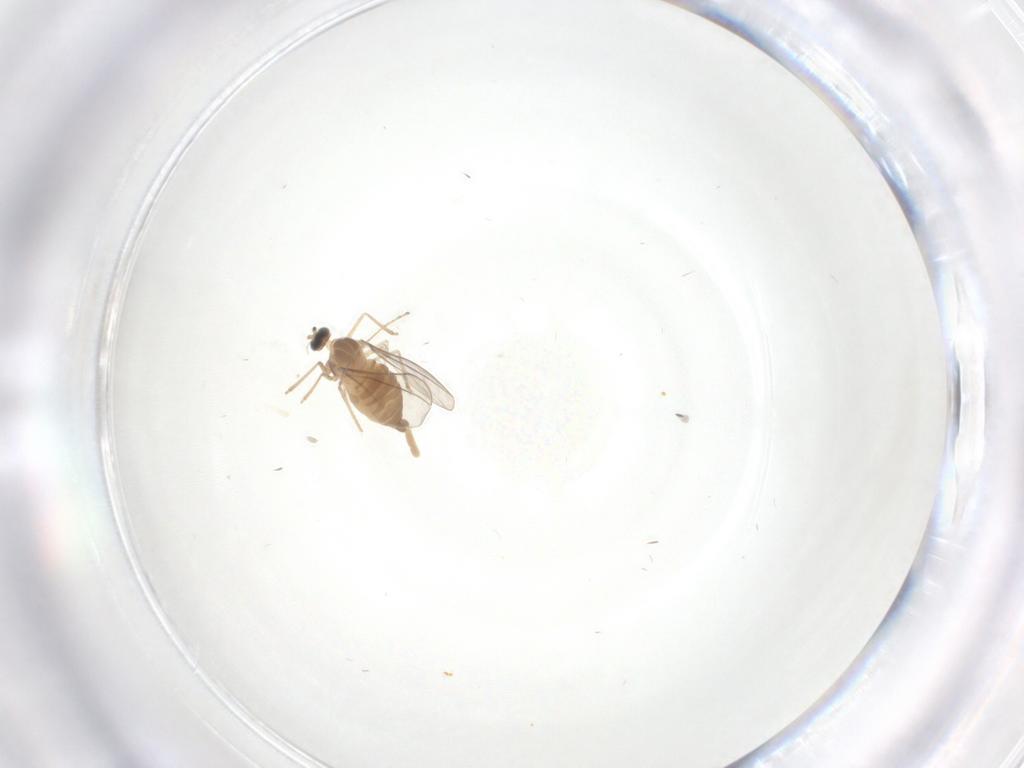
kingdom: Animalia
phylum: Arthropoda
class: Insecta
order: Diptera
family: Cecidomyiidae
